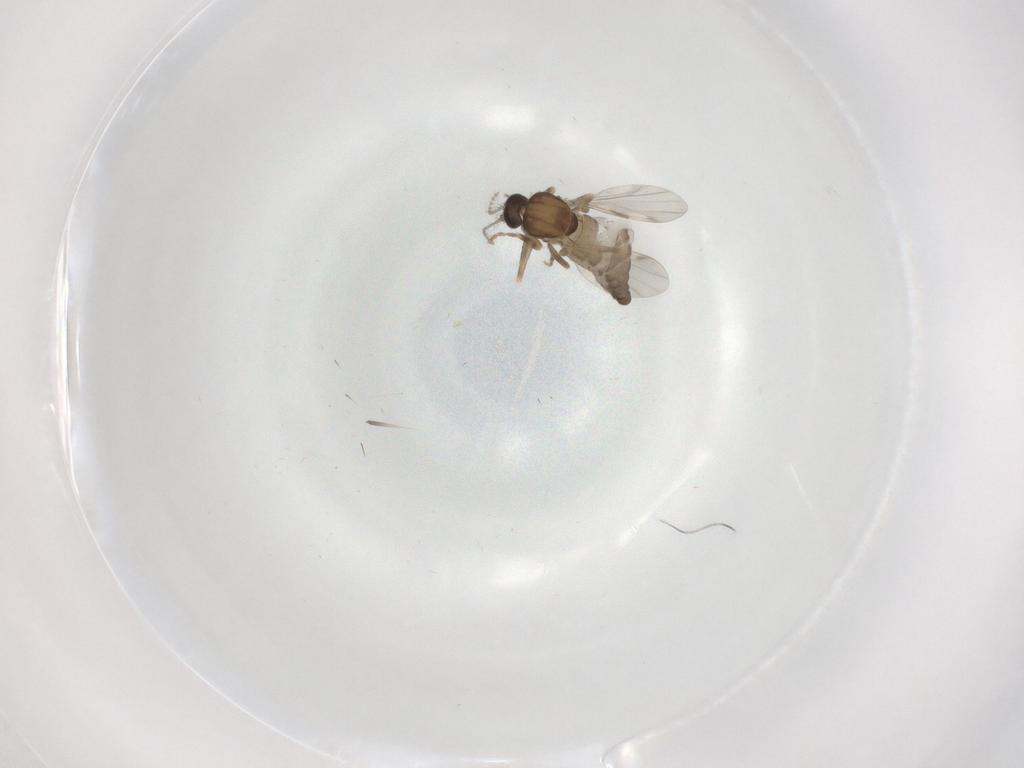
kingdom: Animalia
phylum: Arthropoda
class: Insecta
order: Diptera
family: Ceratopogonidae
